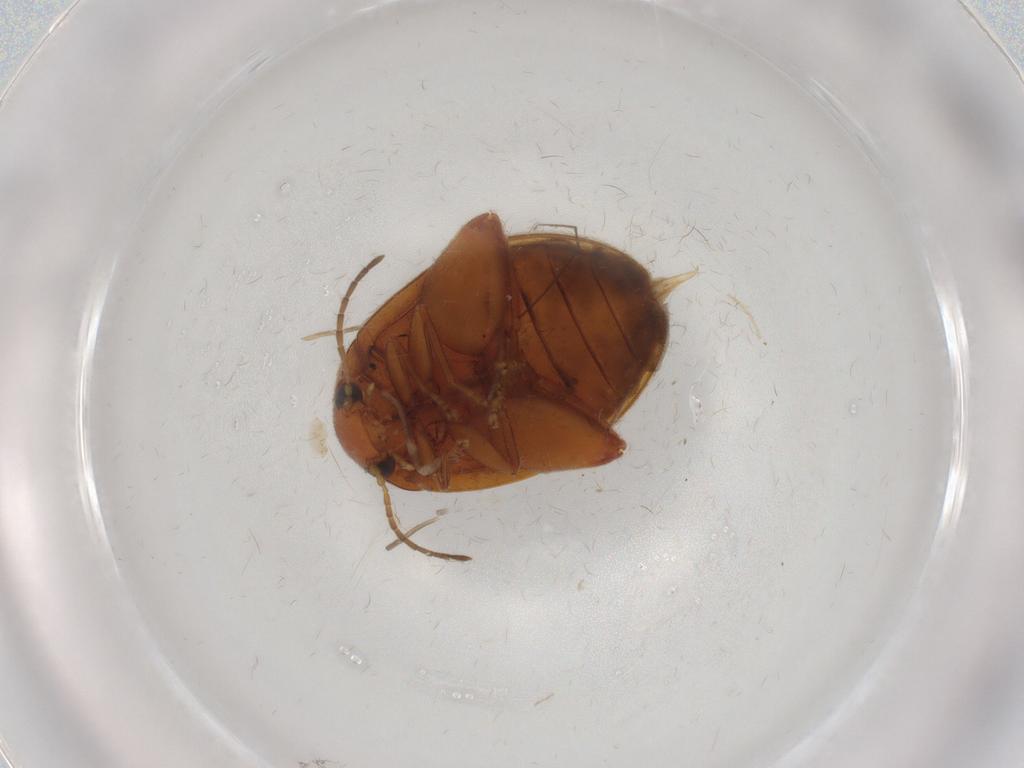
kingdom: Animalia
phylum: Arthropoda
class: Insecta
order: Coleoptera
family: Scirtidae
